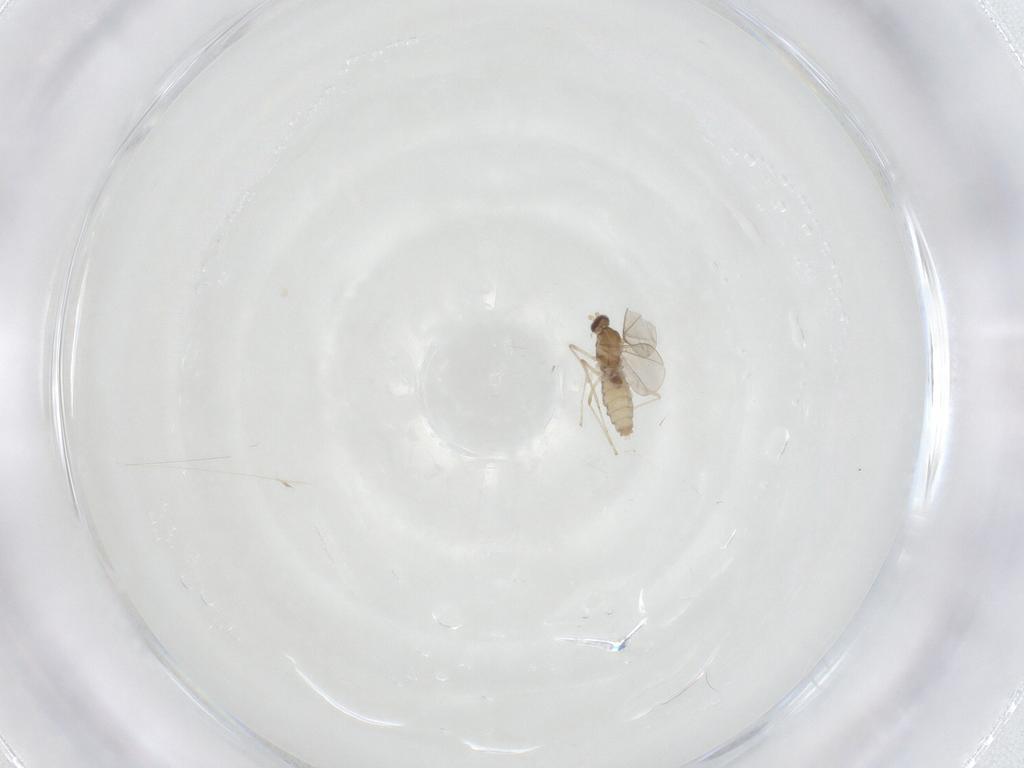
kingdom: Animalia
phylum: Arthropoda
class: Insecta
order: Diptera
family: Cecidomyiidae
